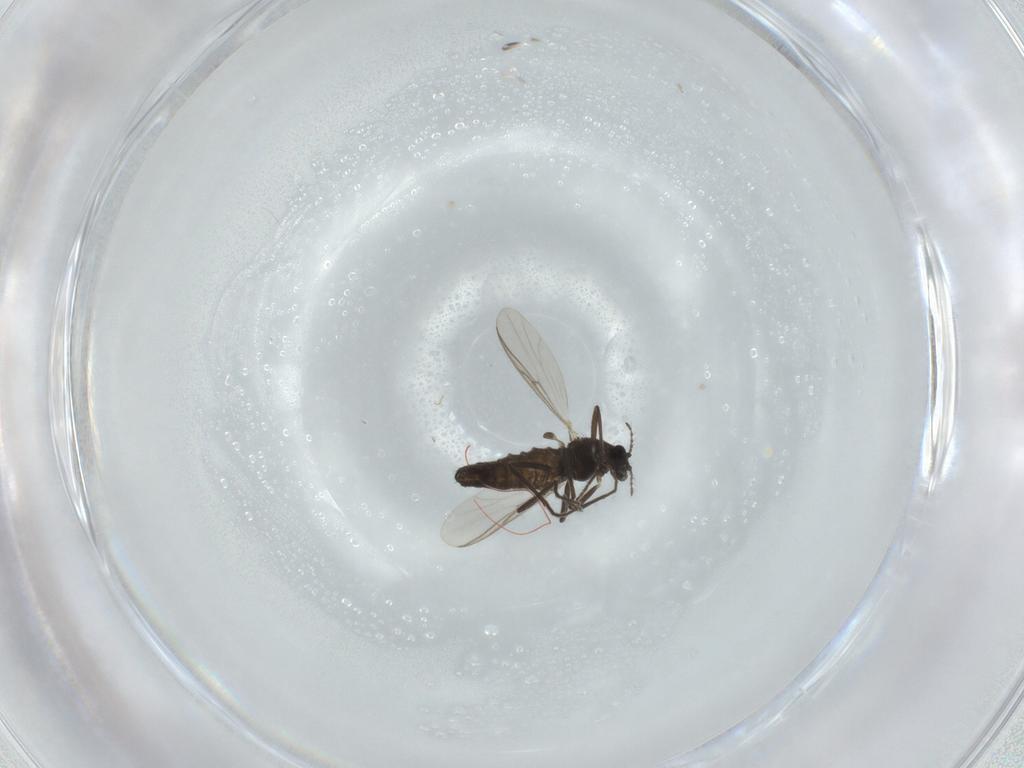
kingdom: Animalia
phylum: Arthropoda
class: Insecta
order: Diptera
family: Chironomidae
